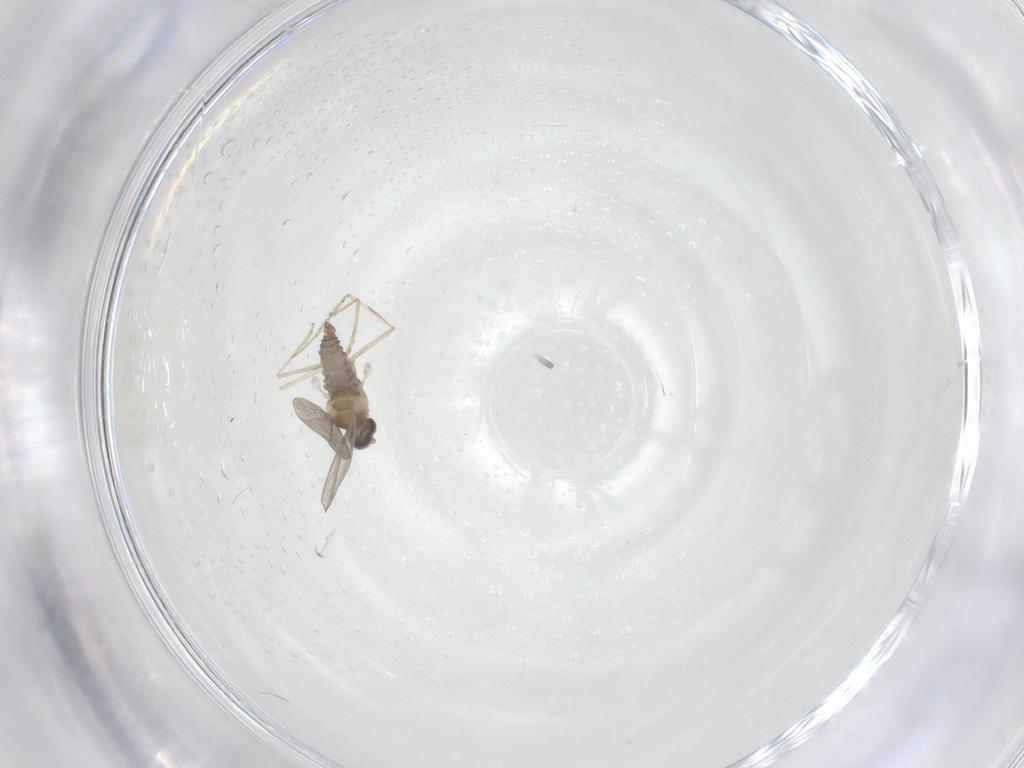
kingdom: Animalia
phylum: Arthropoda
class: Insecta
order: Diptera
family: Cecidomyiidae
